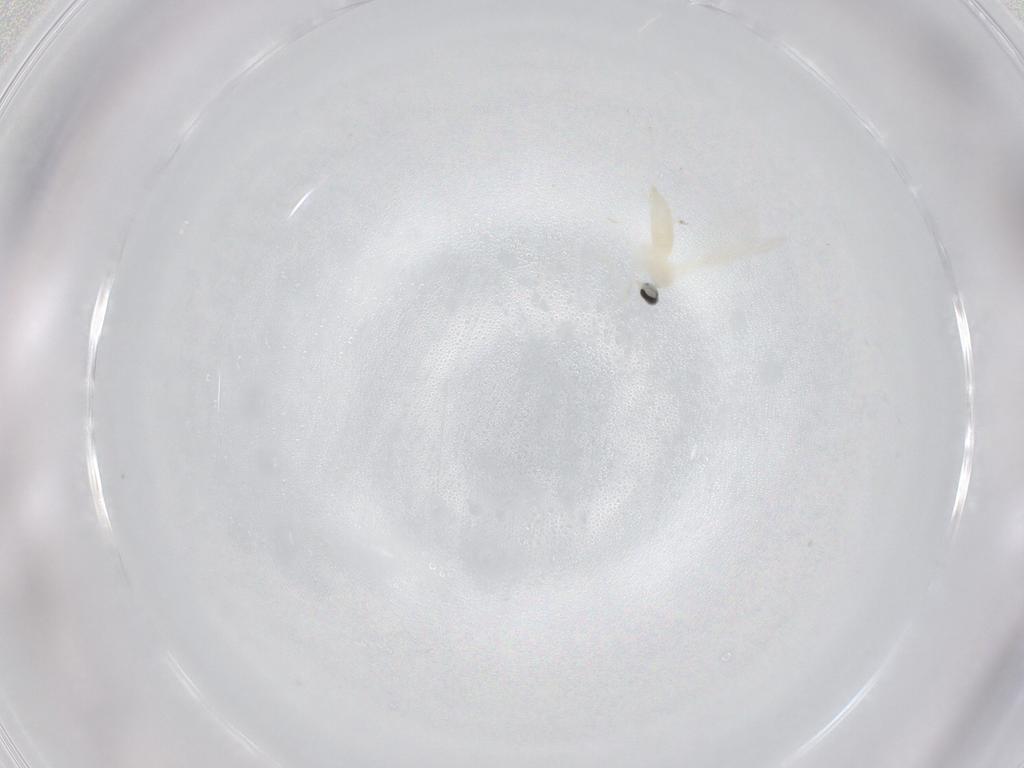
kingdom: Animalia
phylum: Arthropoda
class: Insecta
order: Diptera
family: Cecidomyiidae
